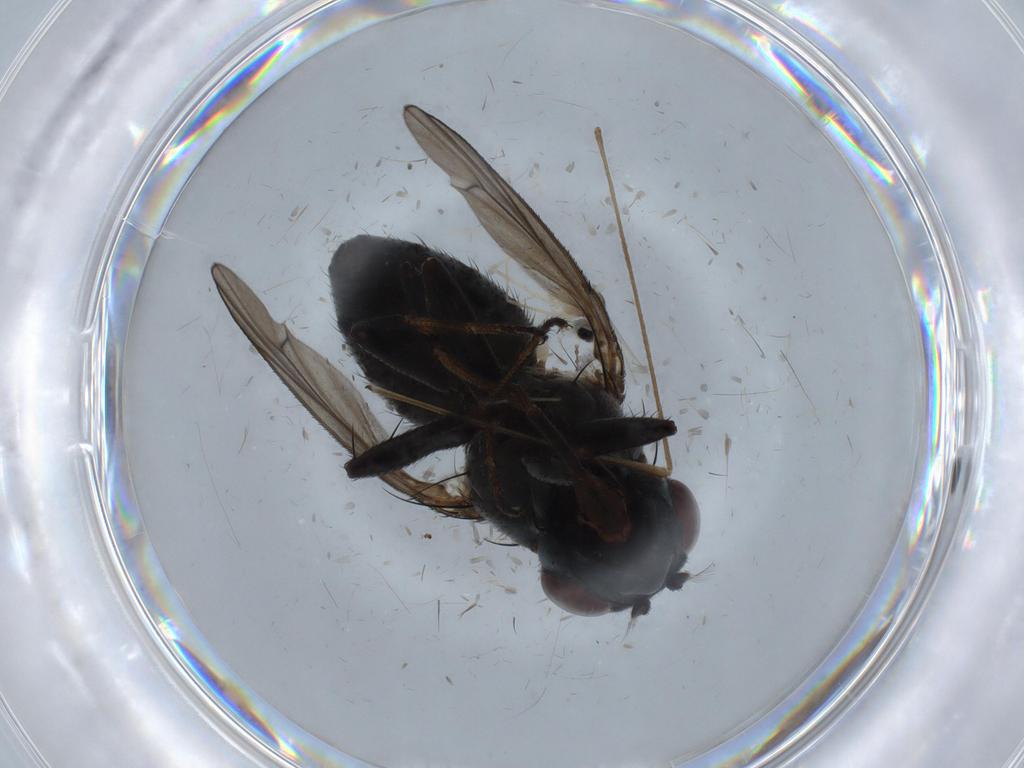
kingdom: Animalia
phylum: Arthropoda
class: Insecta
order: Diptera
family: Ephydridae
